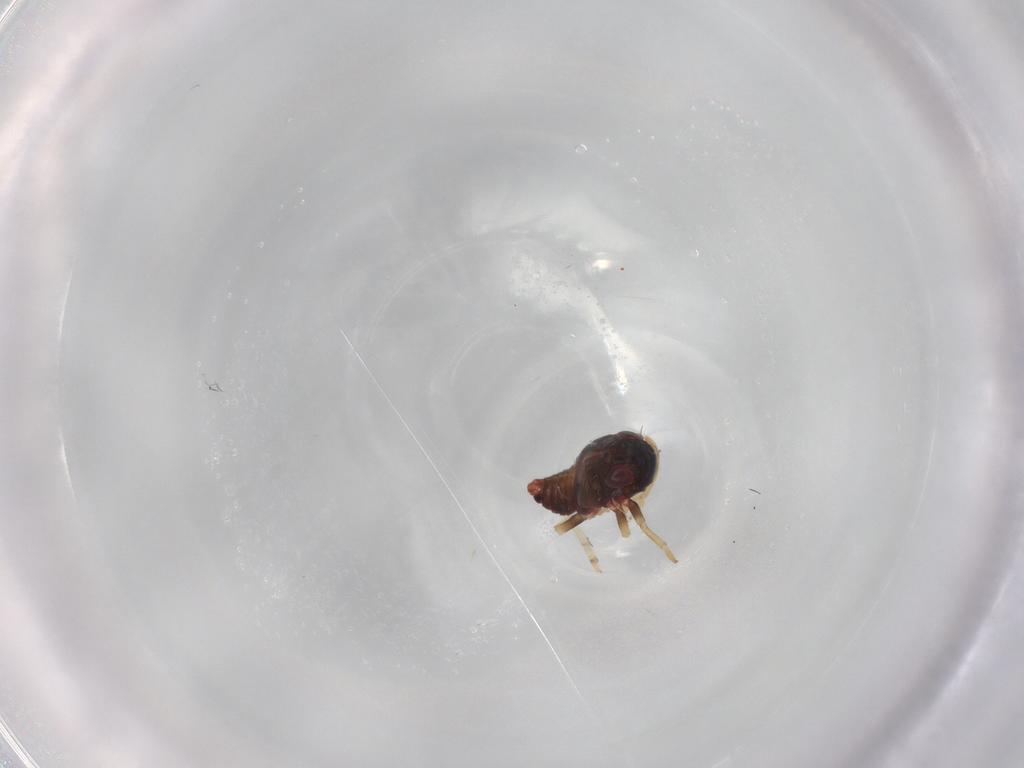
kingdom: Animalia
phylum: Arthropoda
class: Insecta
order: Hemiptera
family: Fulgoroidea_incertae_sedis
